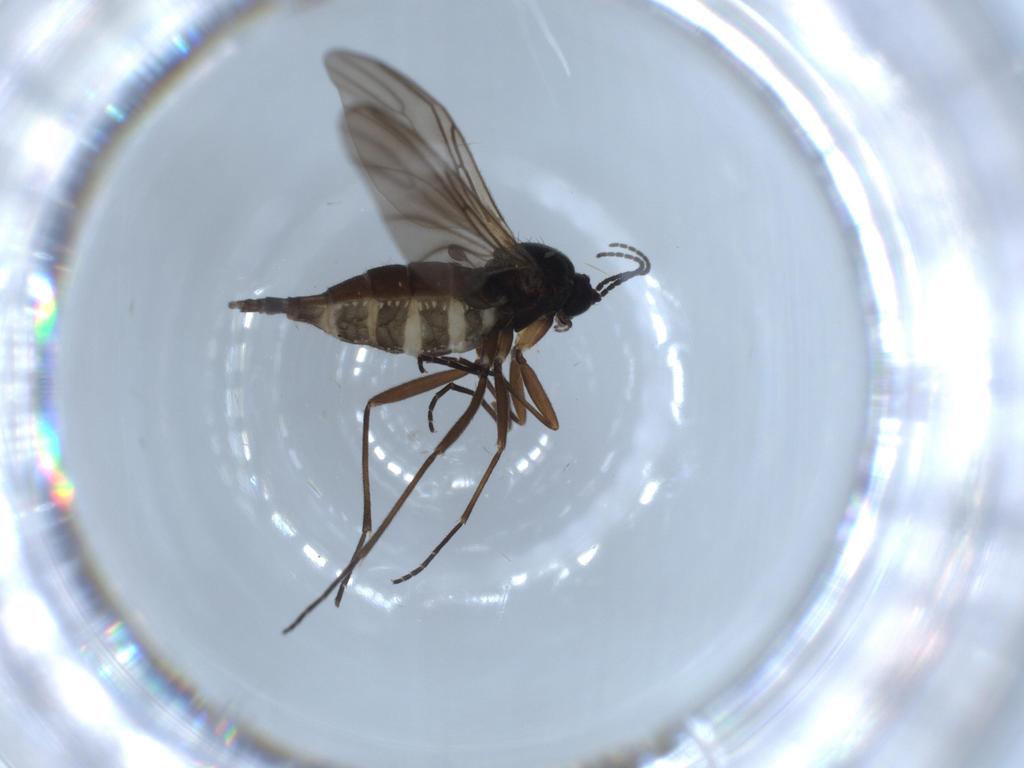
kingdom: Animalia
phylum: Arthropoda
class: Insecta
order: Diptera
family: Sciaridae
